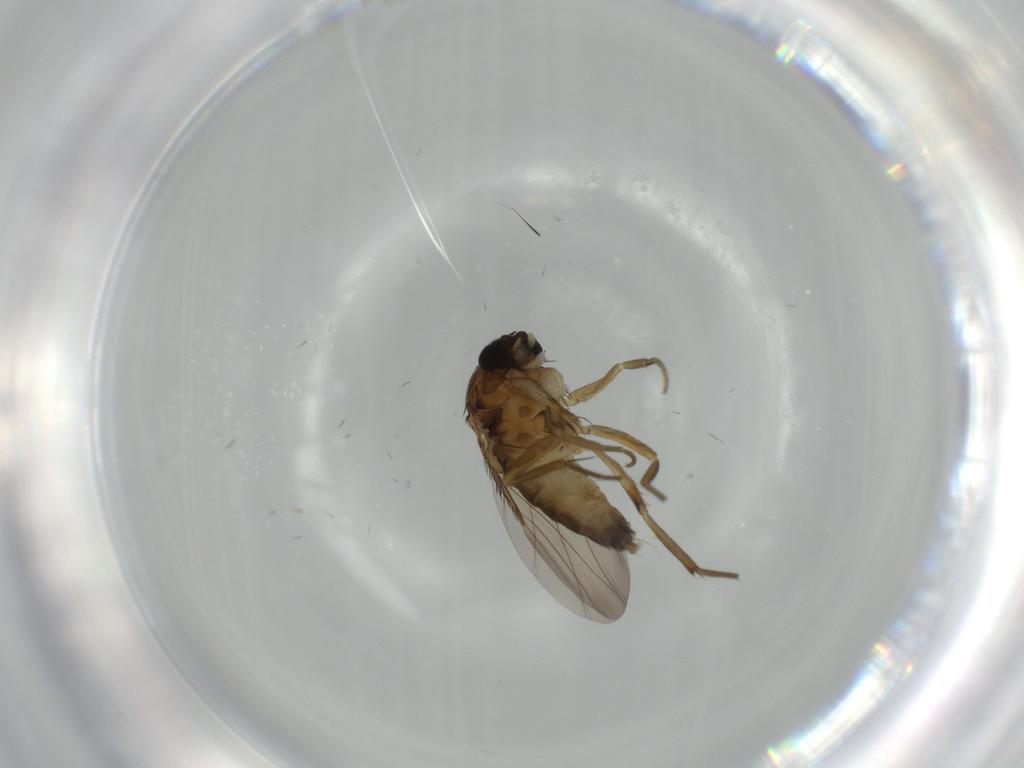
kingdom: Animalia
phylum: Arthropoda
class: Insecta
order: Diptera
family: Phoridae
